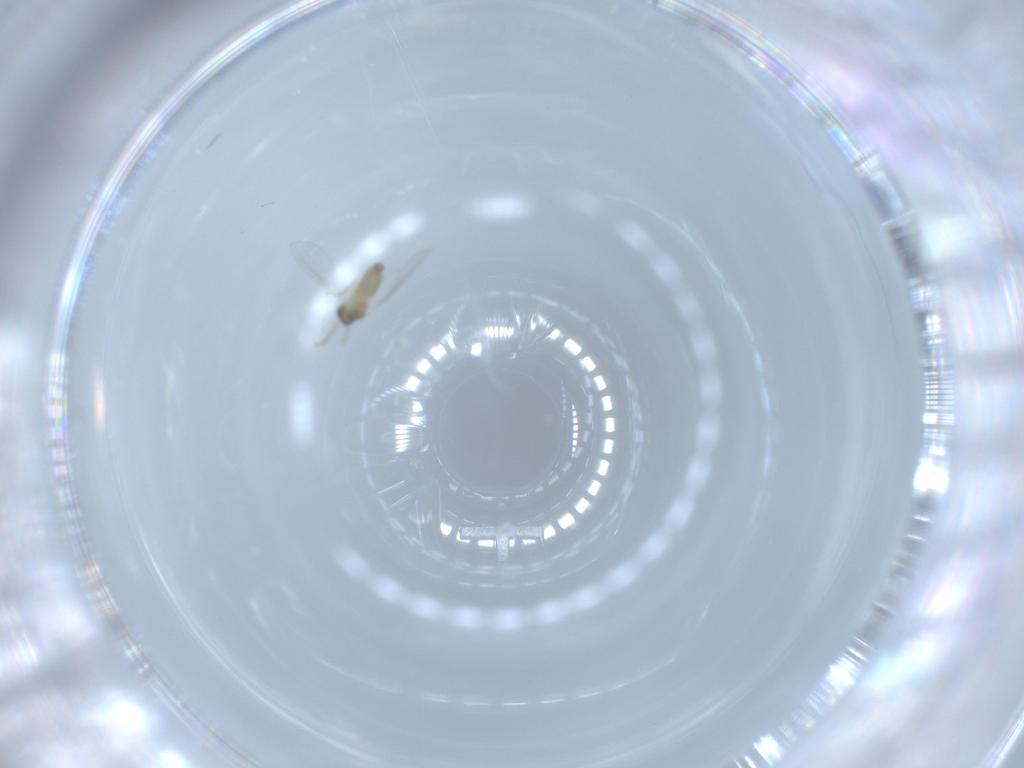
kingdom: Animalia
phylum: Arthropoda
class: Insecta
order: Diptera
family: Cecidomyiidae
